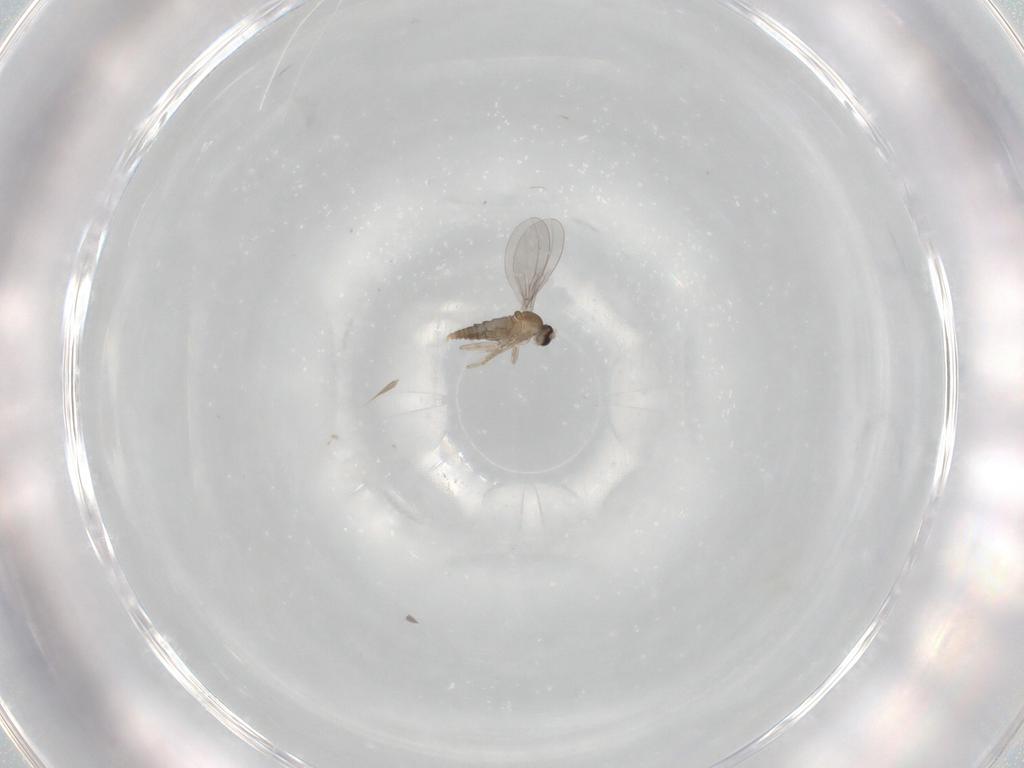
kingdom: Animalia
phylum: Arthropoda
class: Insecta
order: Diptera
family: Cecidomyiidae
